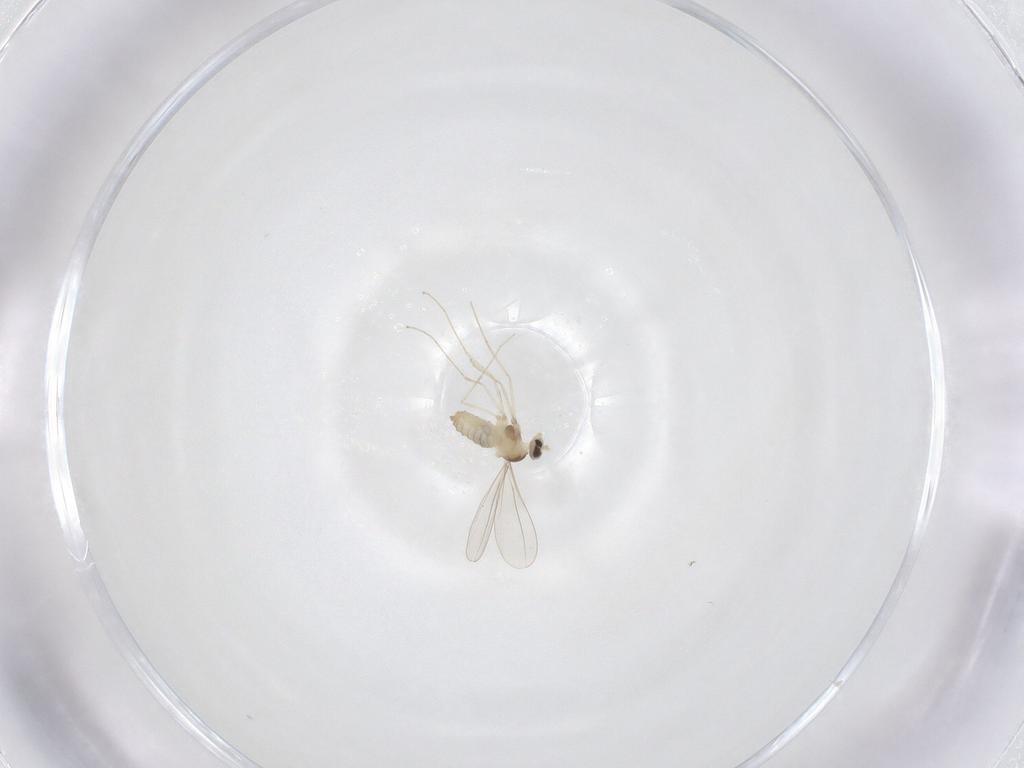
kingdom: Animalia
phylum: Arthropoda
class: Insecta
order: Diptera
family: Cecidomyiidae
